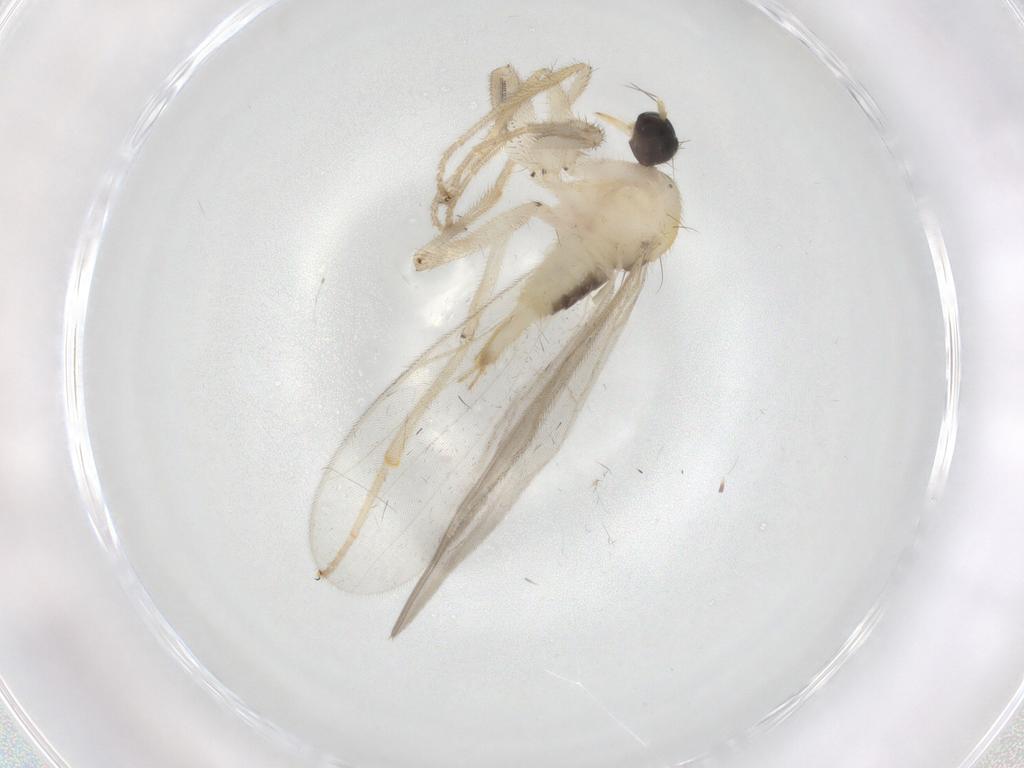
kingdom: Animalia
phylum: Arthropoda
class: Insecta
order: Diptera
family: Hybotidae
